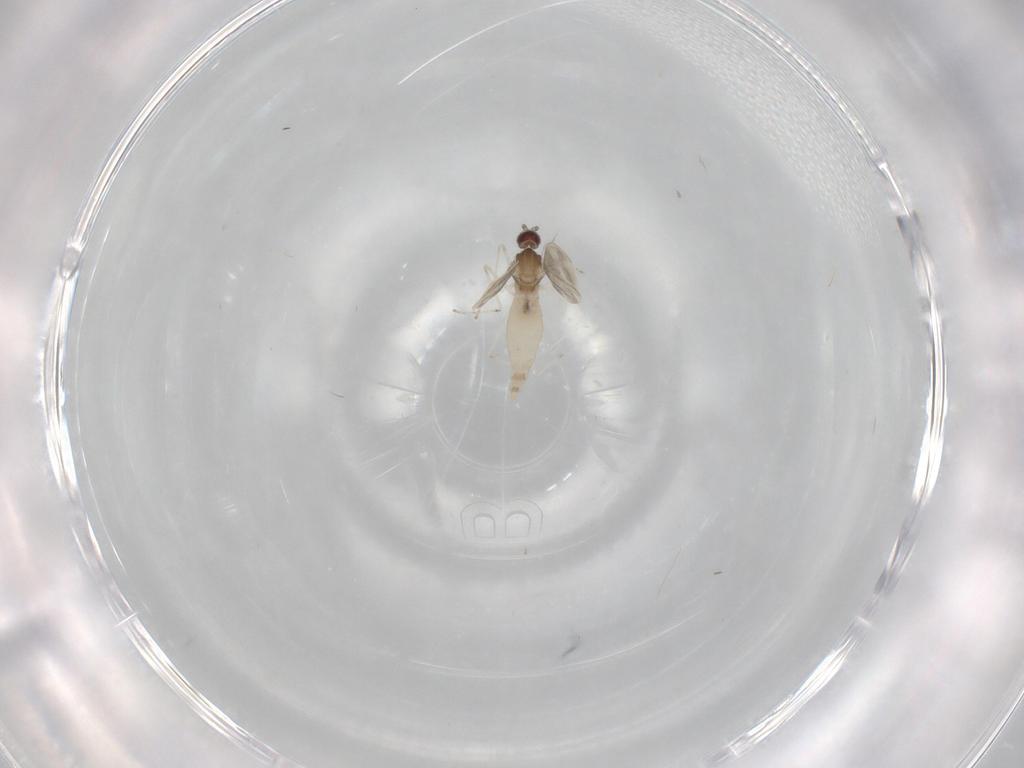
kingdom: Animalia
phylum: Arthropoda
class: Insecta
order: Diptera
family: Cecidomyiidae
